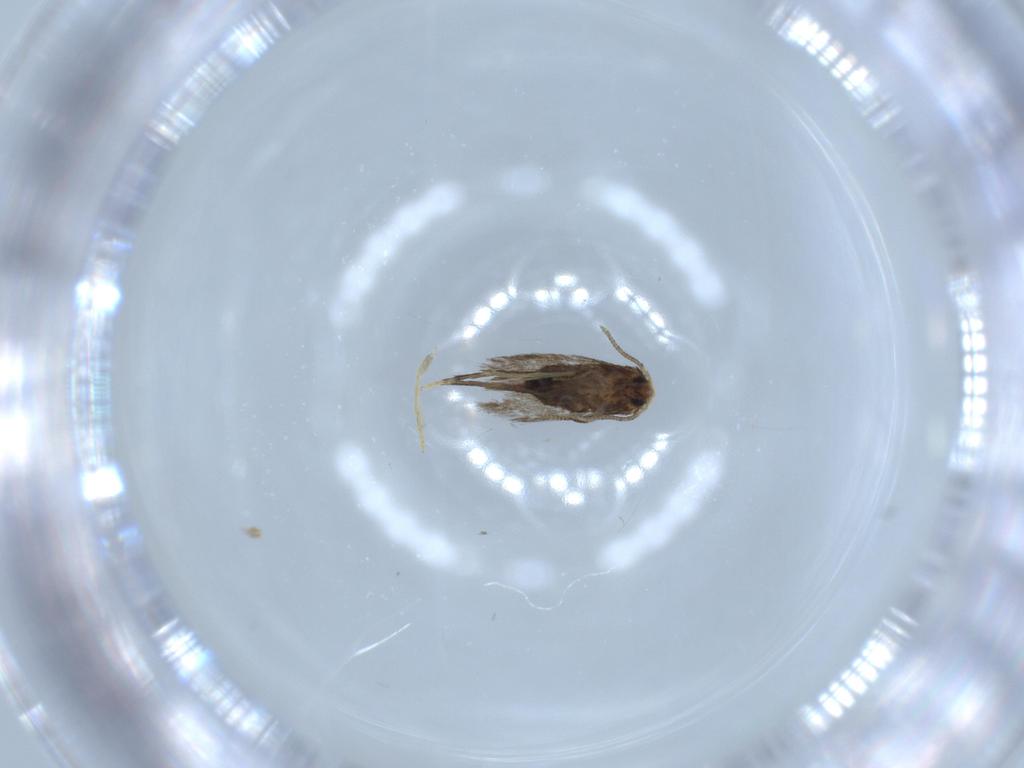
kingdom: Animalia
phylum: Arthropoda
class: Insecta
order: Lepidoptera
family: Nepticulidae
